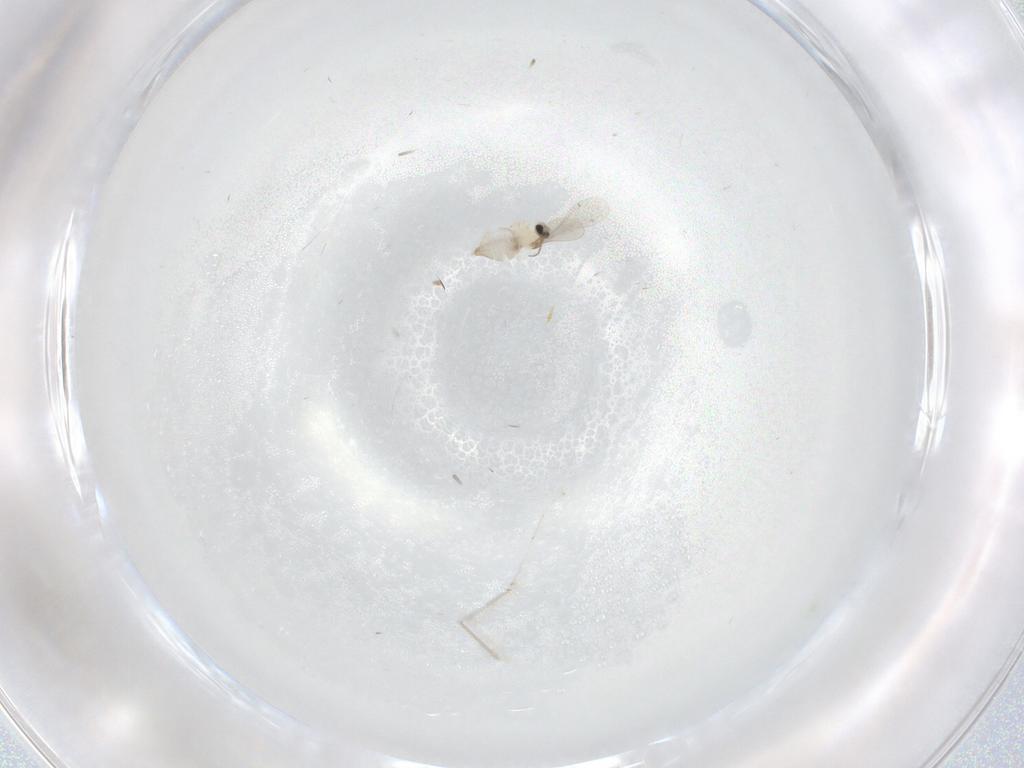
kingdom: Animalia
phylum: Arthropoda
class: Insecta
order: Diptera
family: Cecidomyiidae
